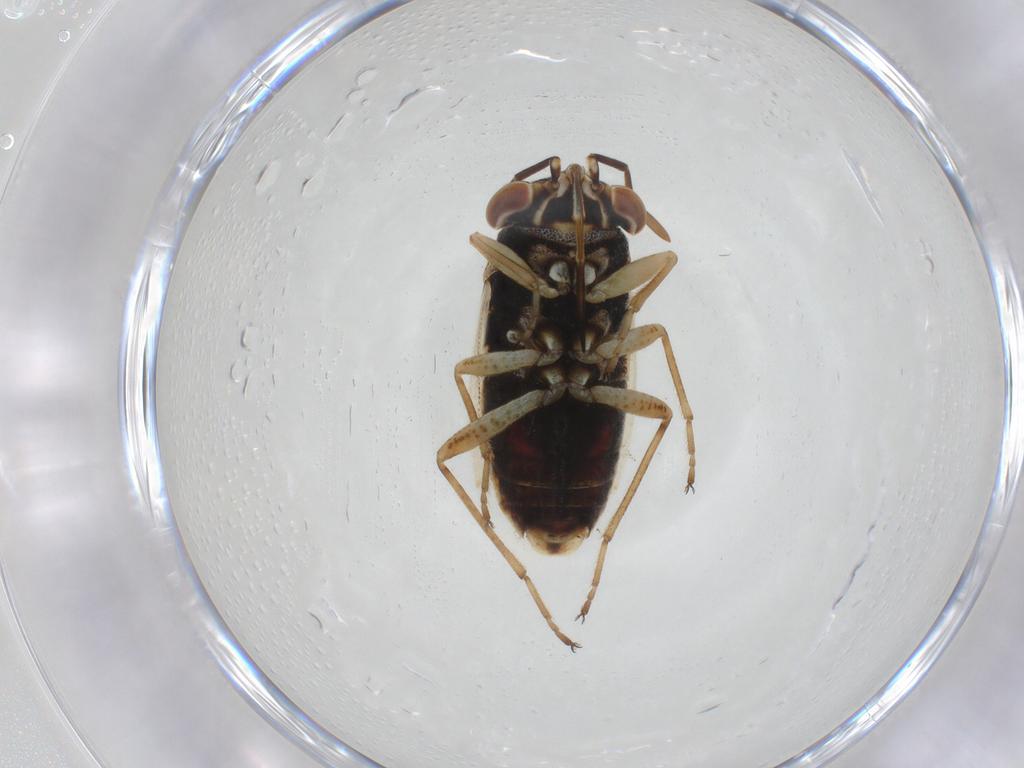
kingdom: Animalia
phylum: Arthropoda
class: Insecta
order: Hemiptera
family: Geocoridae
